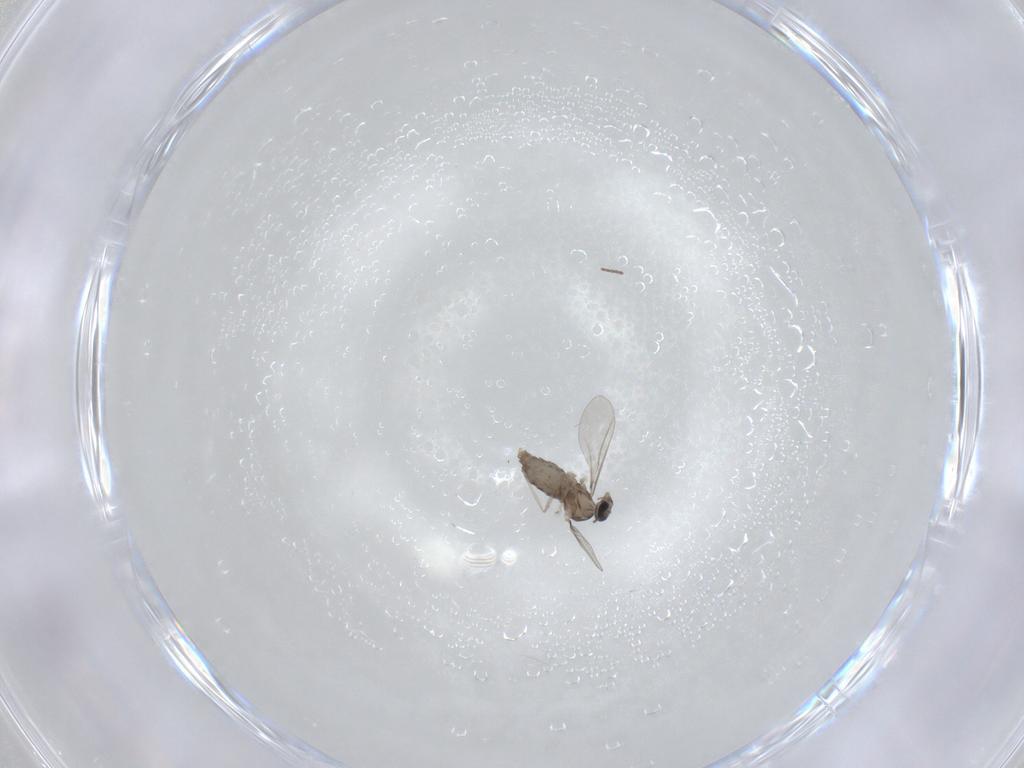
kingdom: Animalia
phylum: Arthropoda
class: Insecta
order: Diptera
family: Cecidomyiidae
